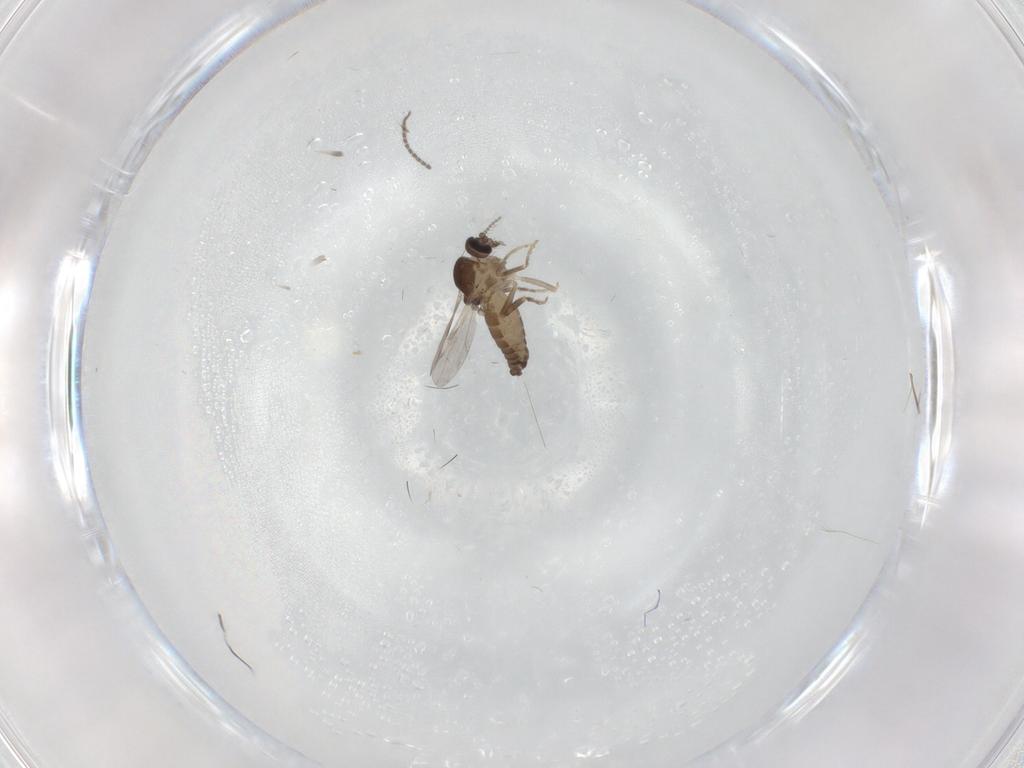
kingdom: Animalia
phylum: Arthropoda
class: Insecta
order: Diptera
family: Ceratopogonidae
